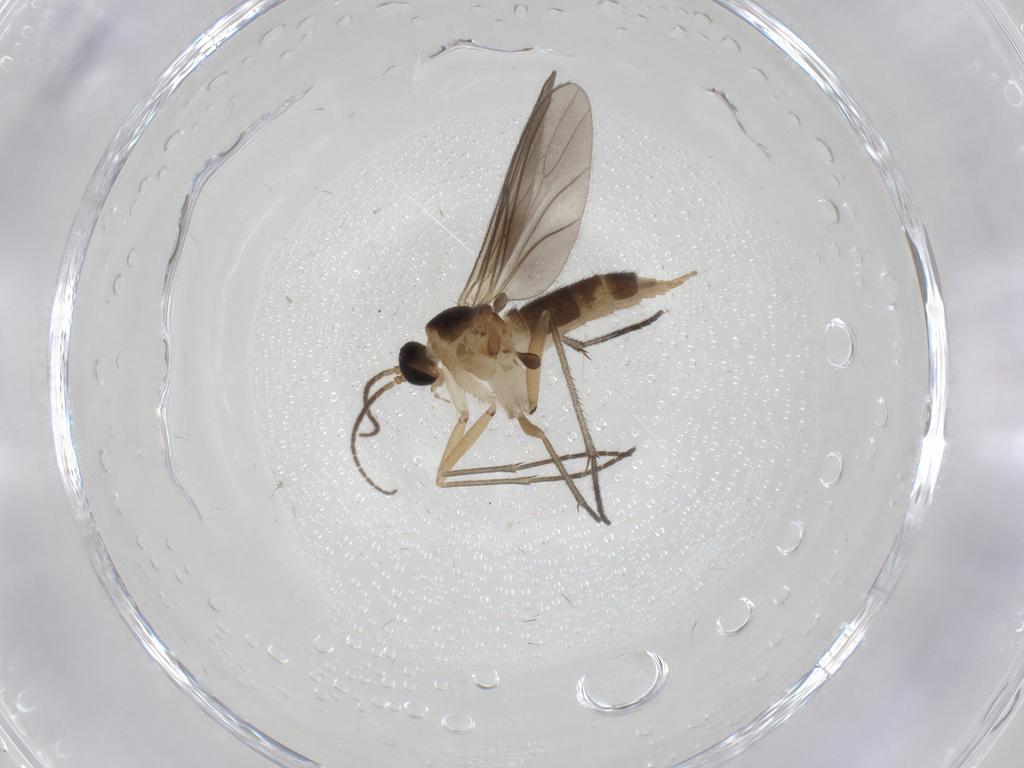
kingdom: Animalia
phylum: Arthropoda
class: Insecta
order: Diptera
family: Sciaridae
